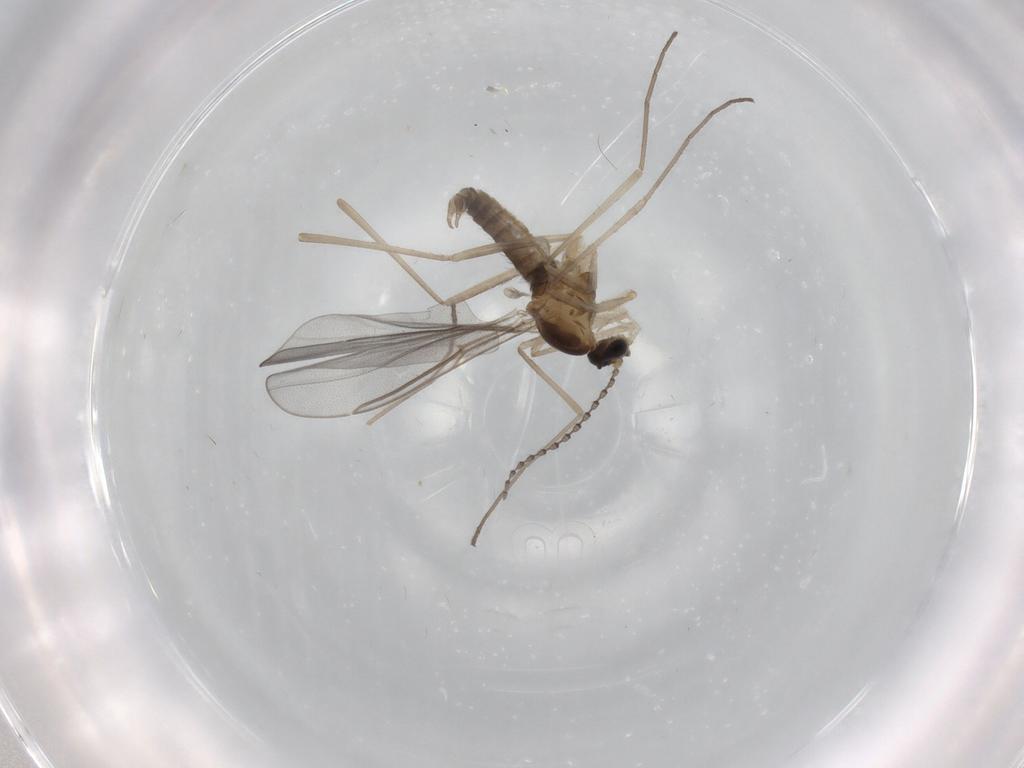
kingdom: Animalia
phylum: Arthropoda
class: Insecta
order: Diptera
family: Cecidomyiidae
